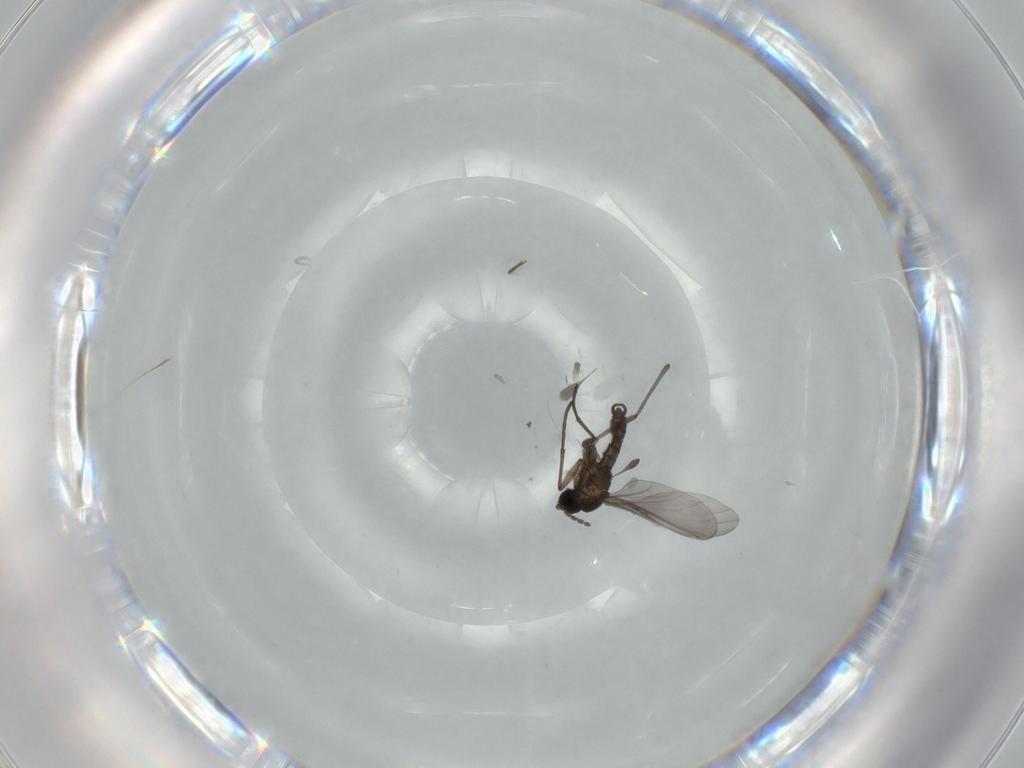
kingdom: Animalia
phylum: Arthropoda
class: Insecta
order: Diptera
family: Sciaridae
